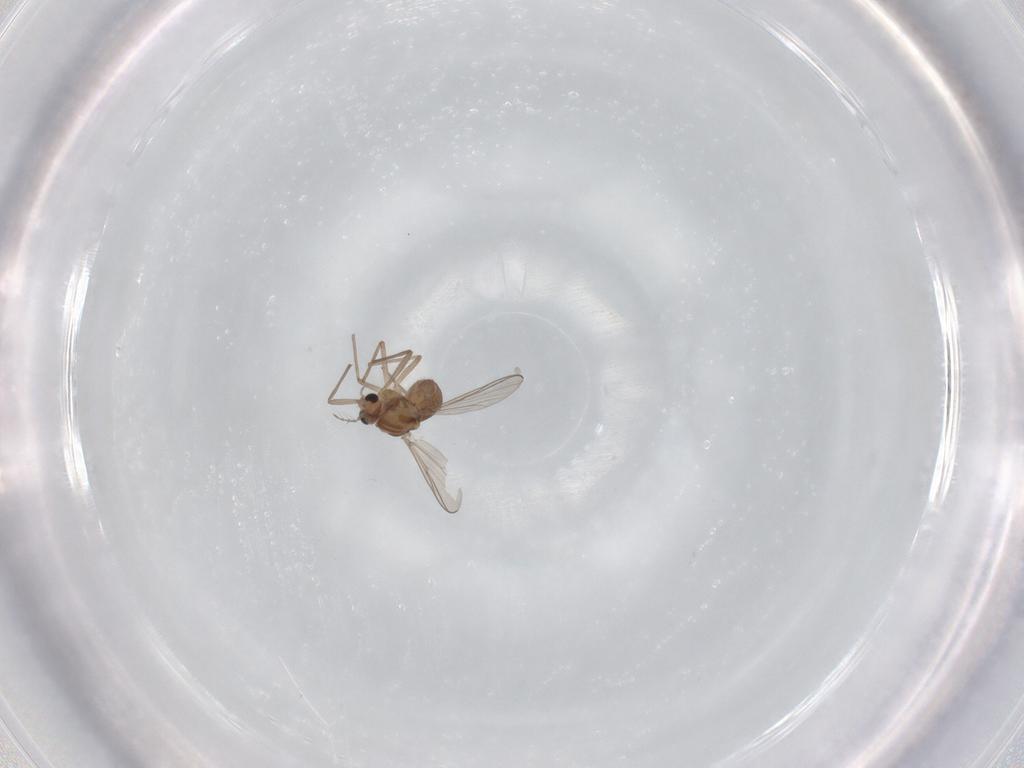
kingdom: Animalia
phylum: Arthropoda
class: Insecta
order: Diptera
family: Chironomidae
